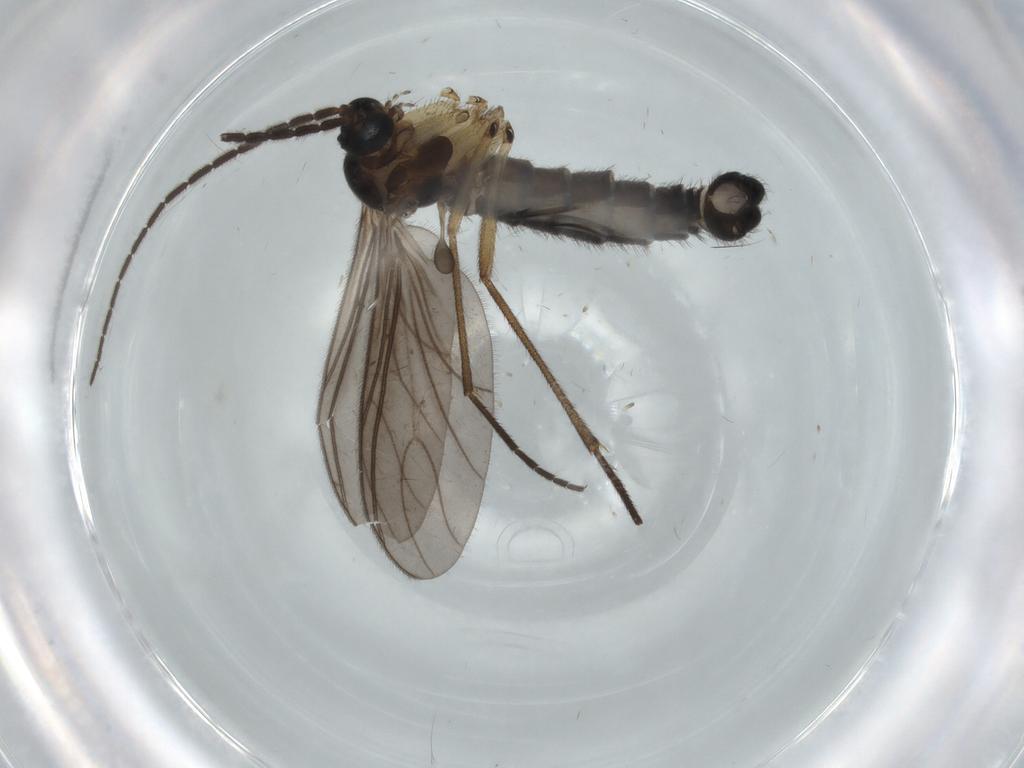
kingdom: Animalia
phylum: Arthropoda
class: Insecta
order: Diptera
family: Sciaridae
